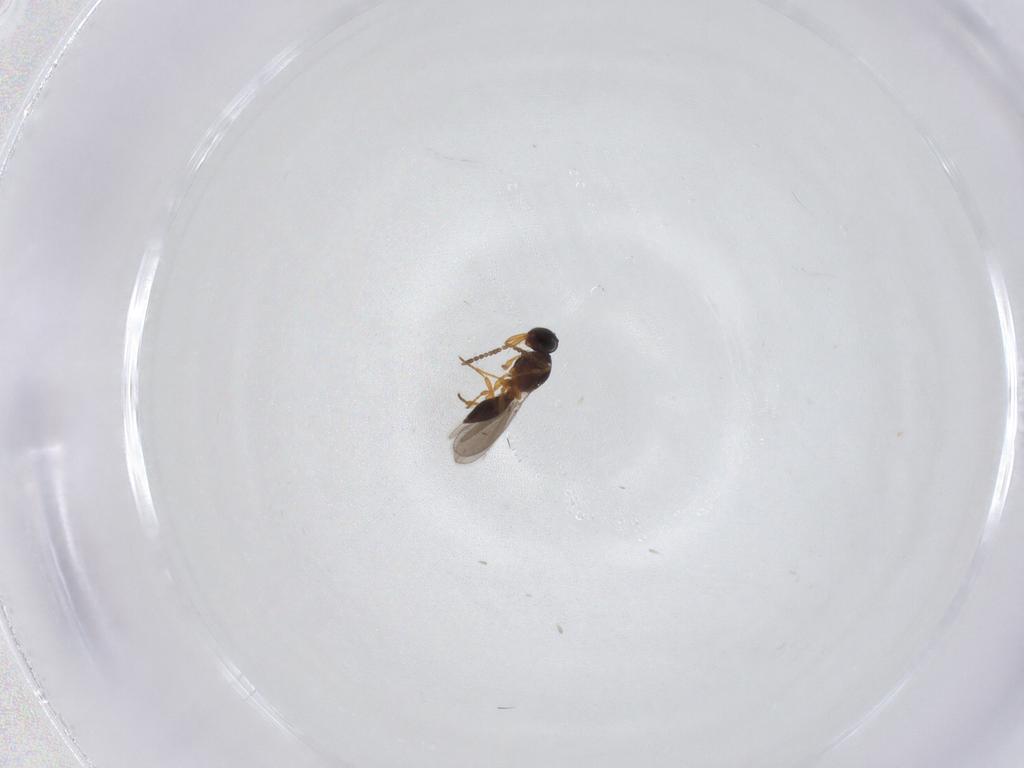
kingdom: Animalia
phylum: Arthropoda
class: Insecta
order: Hymenoptera
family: Platygastridae
